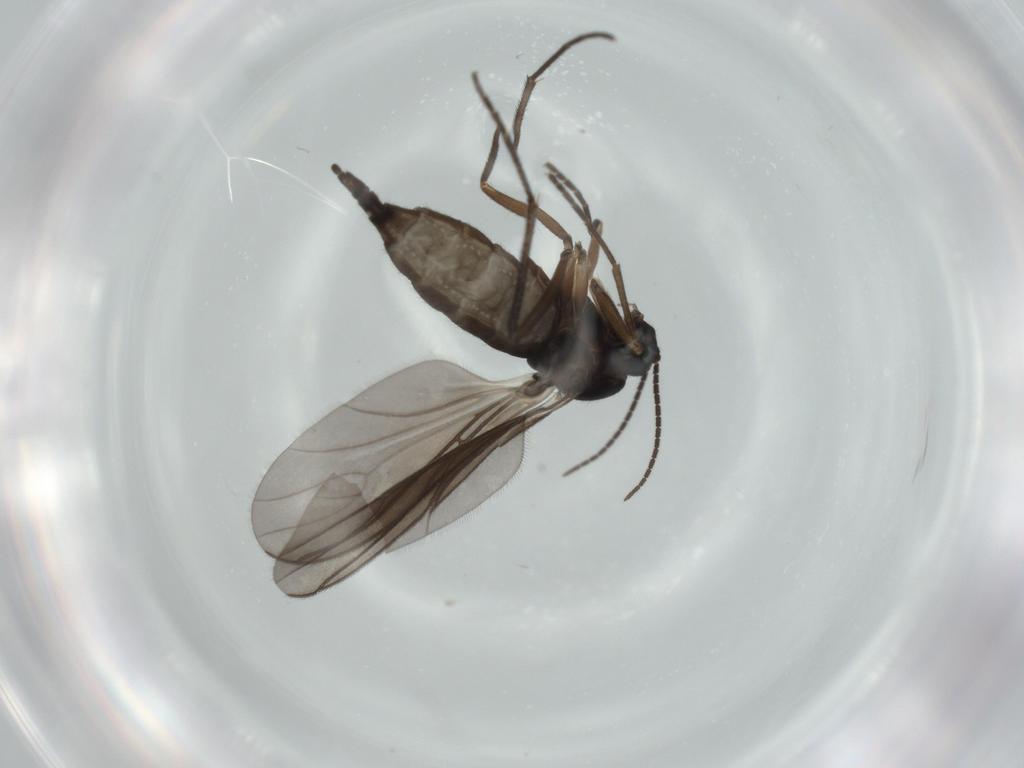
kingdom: Animalia
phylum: Arthropoda
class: Insecta
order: Diptera
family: Sciaridae
